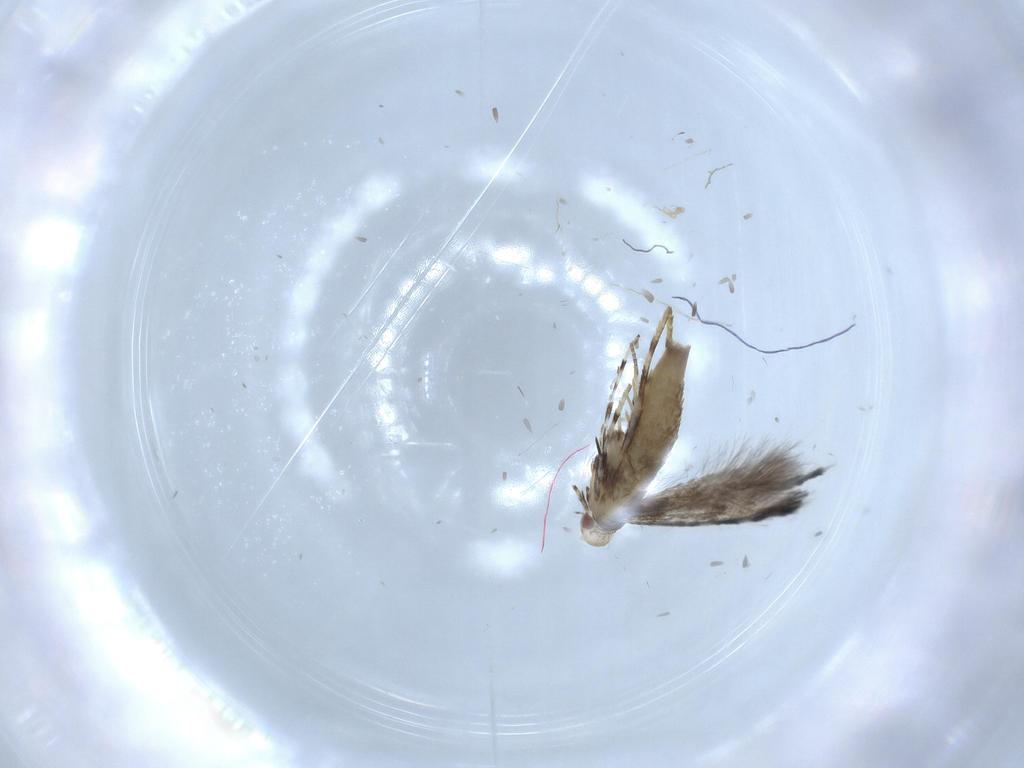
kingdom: Animalia
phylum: Arthropoda
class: Insecta
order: Lepidoptera
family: Gracillariidae
